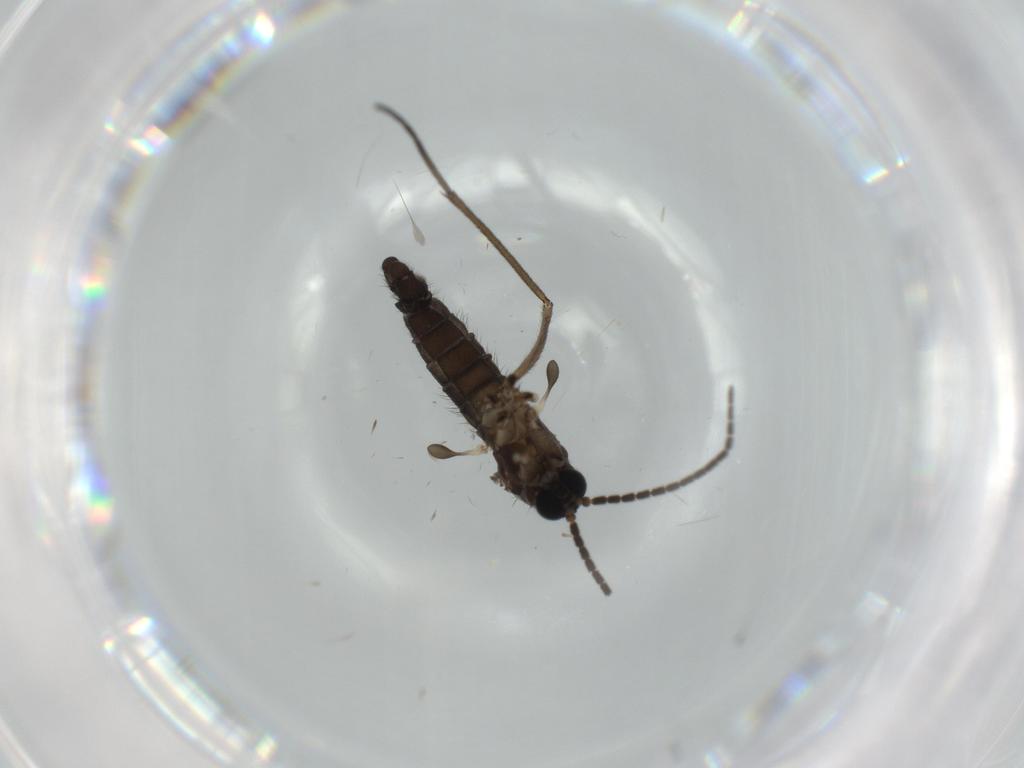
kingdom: Animalia
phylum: Arthropoda
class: Insecta
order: Diptera
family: Sciaridae
